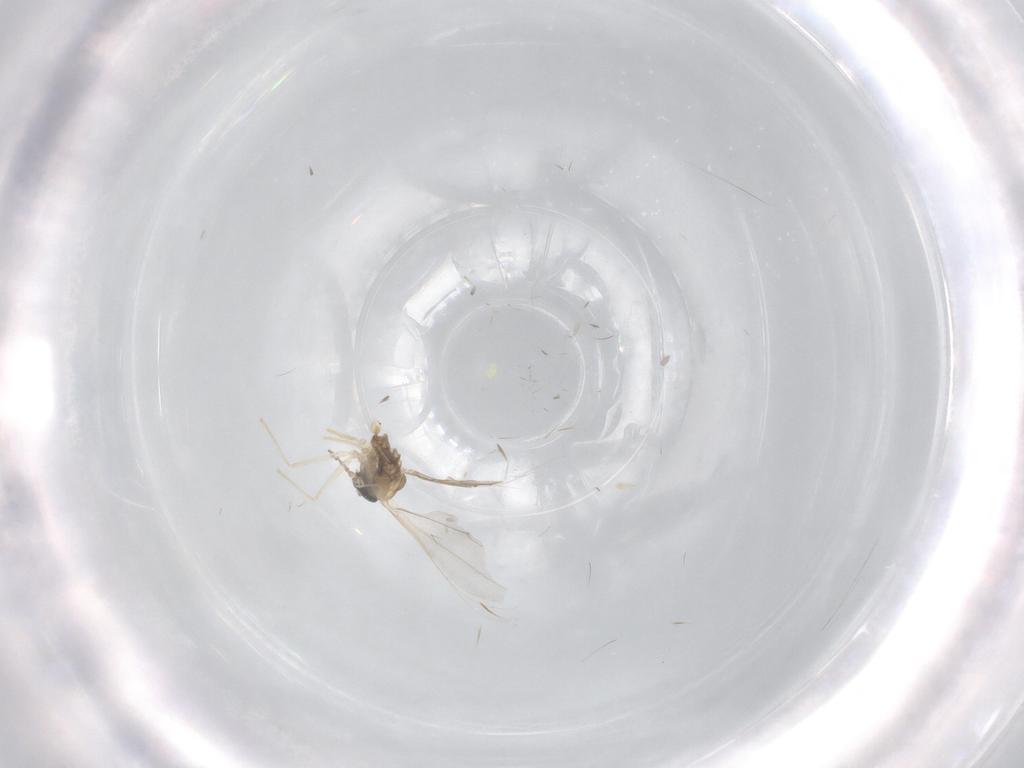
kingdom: Animalia
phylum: Arthropoda
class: Insecta
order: Diptera
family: Cecidomyiidae
